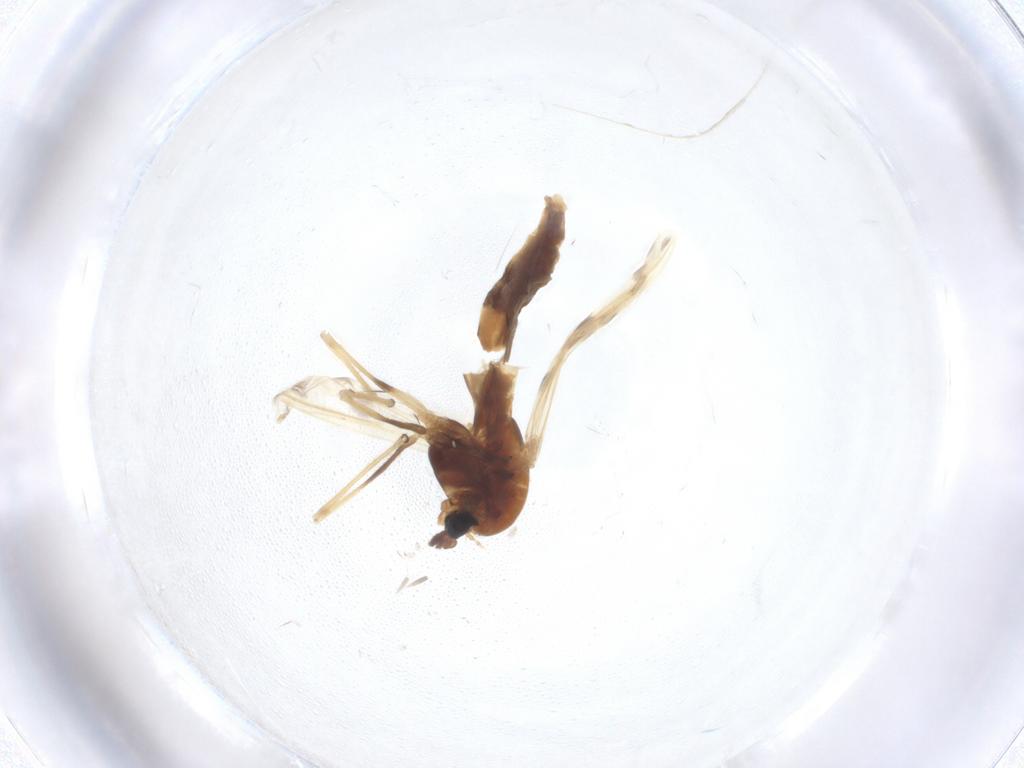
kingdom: Animalia
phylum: Arthropoda
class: Insecta
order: Diptera
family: Chironomidae
